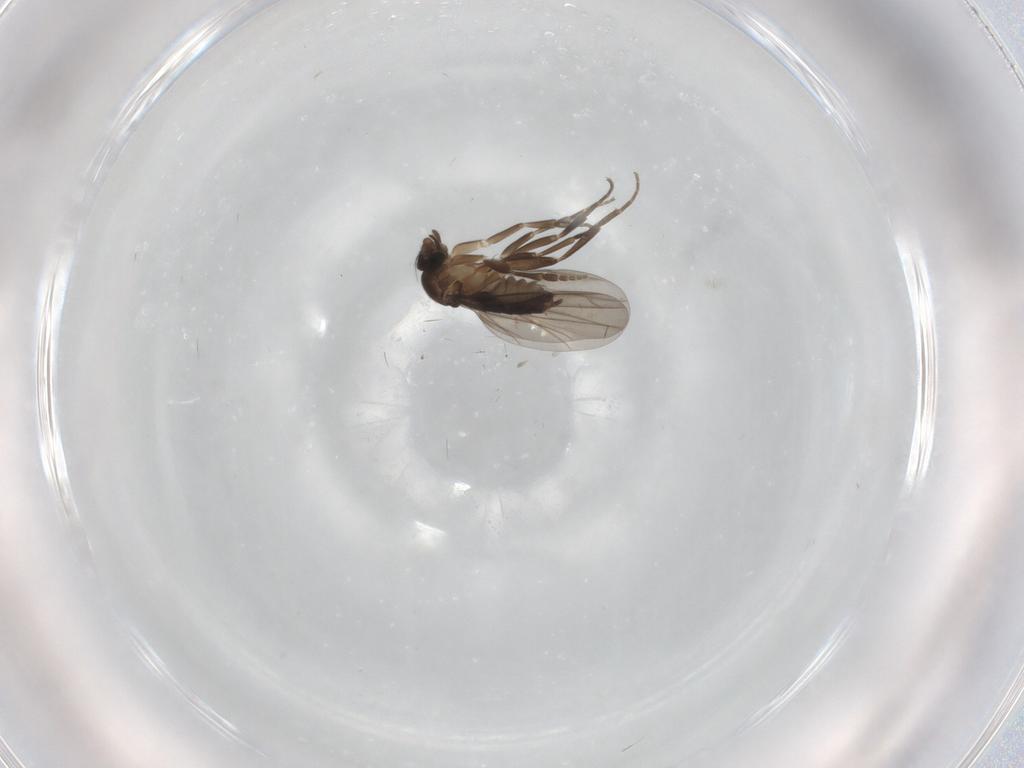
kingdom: Animalia
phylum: Arthropoda
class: Insecta
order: Diptera
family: Phoridae
